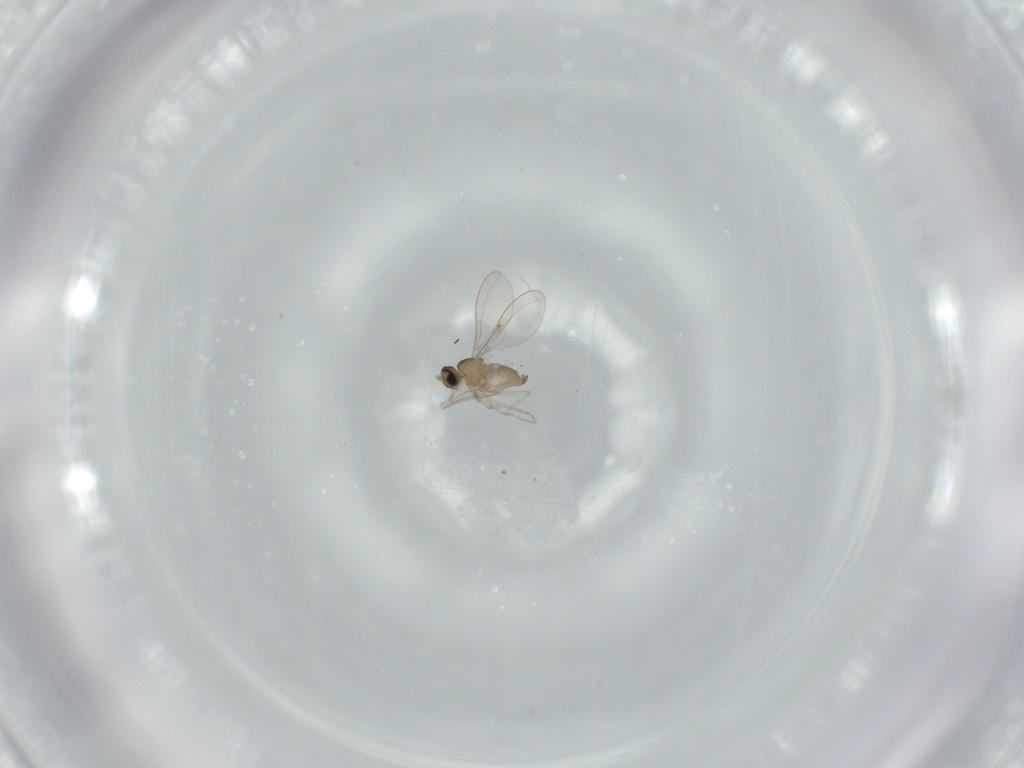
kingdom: Animalia
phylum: Arthropoda
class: Insecta
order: Diptera
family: Cecidomyiidae
